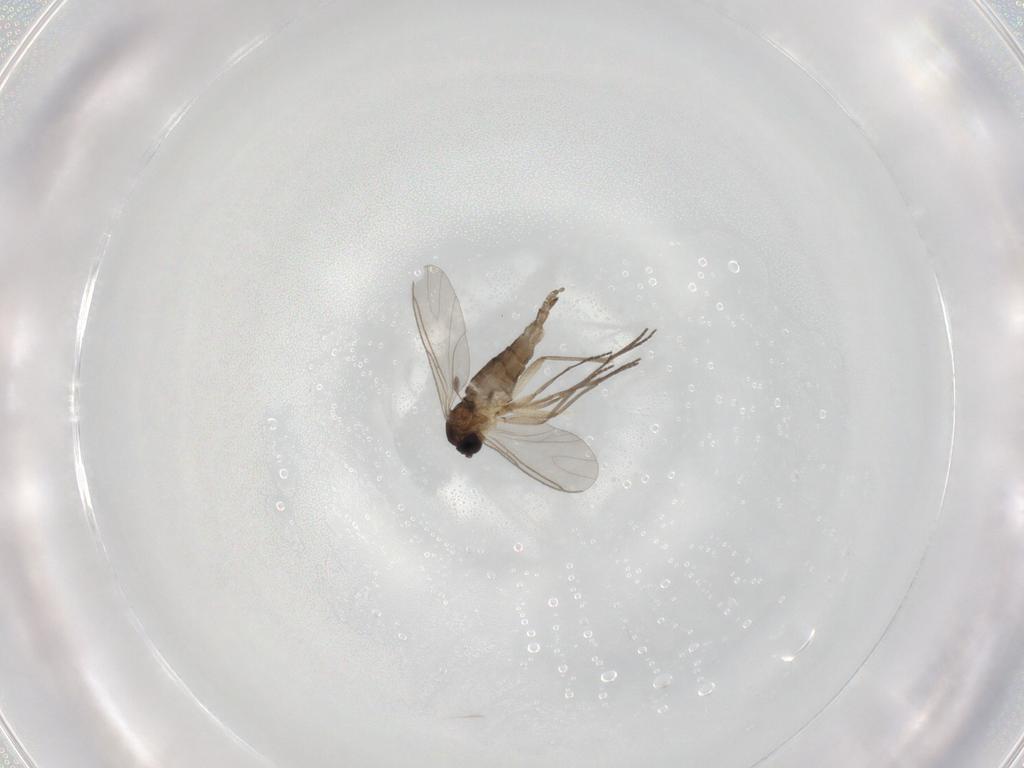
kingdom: Animalia
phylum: Arthropoda
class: Insecta
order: Diptera
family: Sciaridae
